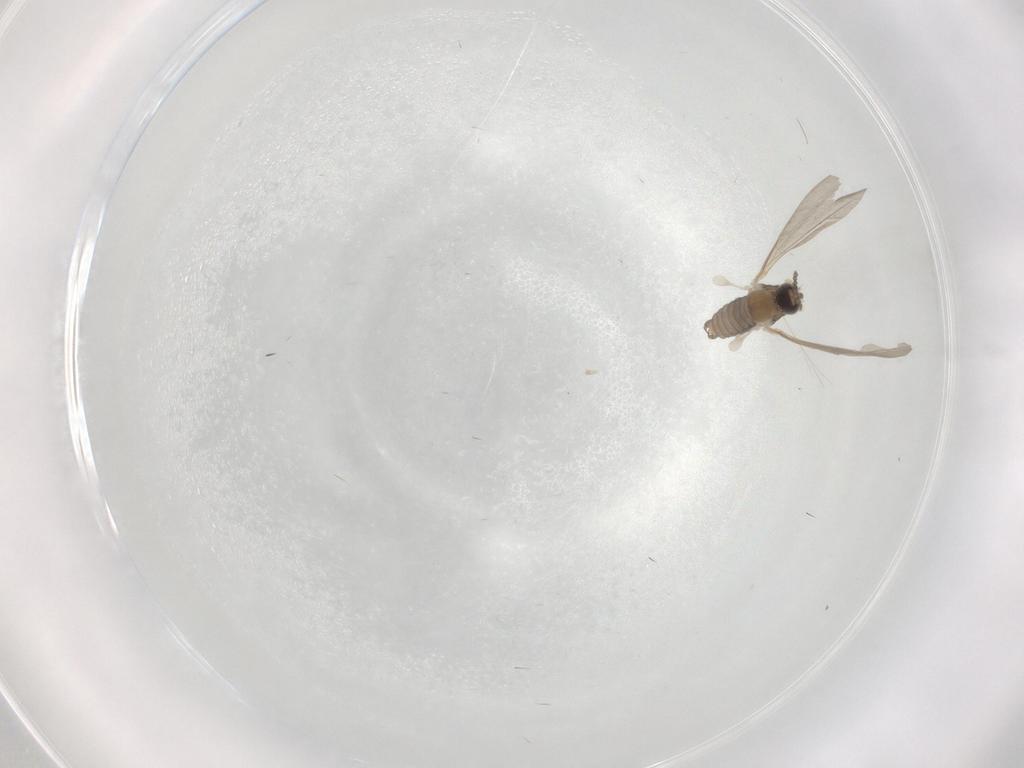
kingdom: Animalia
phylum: Arthropoda
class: Insecta
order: Diptera
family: Cecidomyiidae
